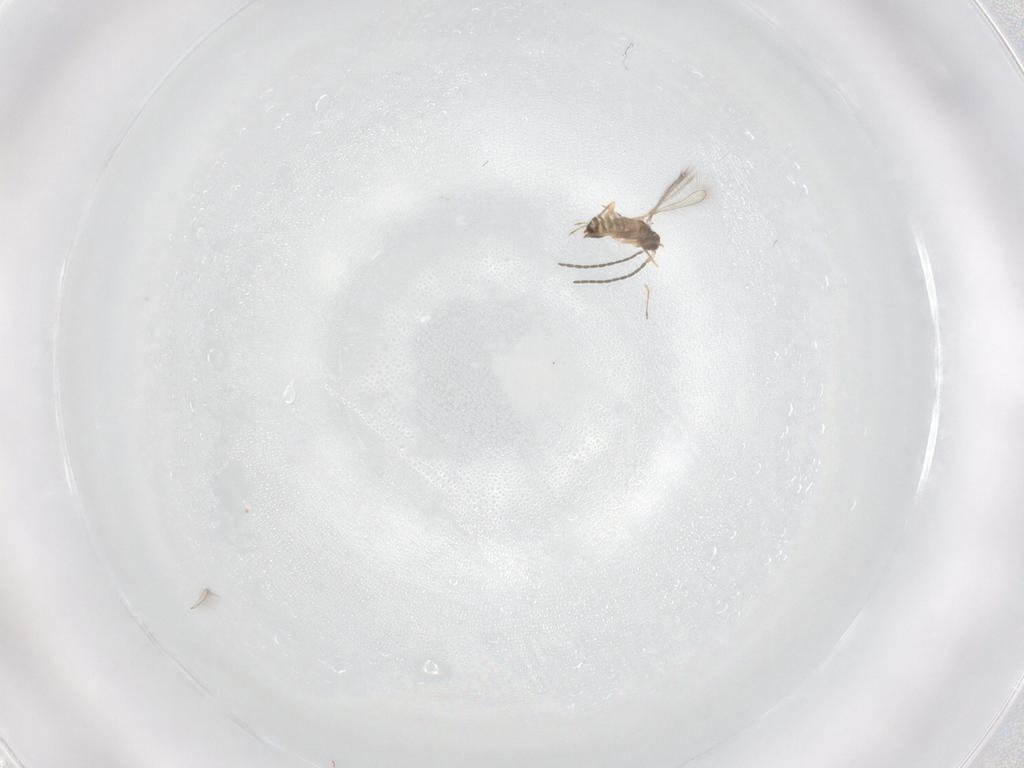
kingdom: Animalia
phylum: Arthropoda
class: Insecta
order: Hymenoptera
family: Mymaridae
